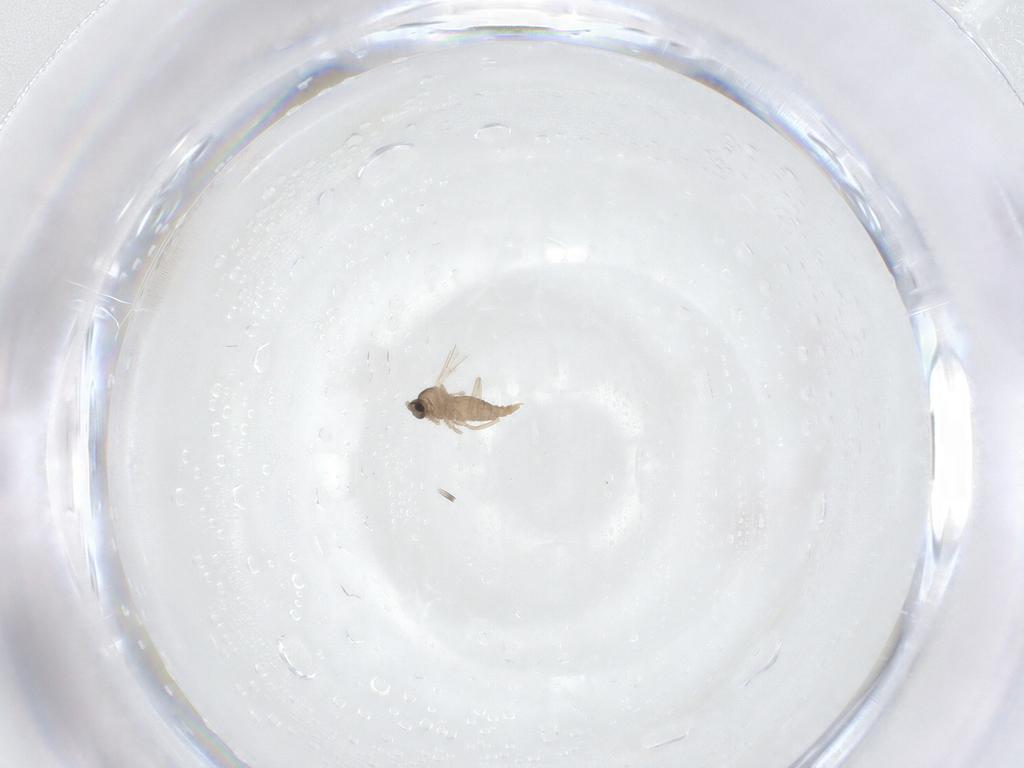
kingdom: Animalia
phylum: Arthropoda
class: Insecta
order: Diptera
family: Cecidomyiidae
